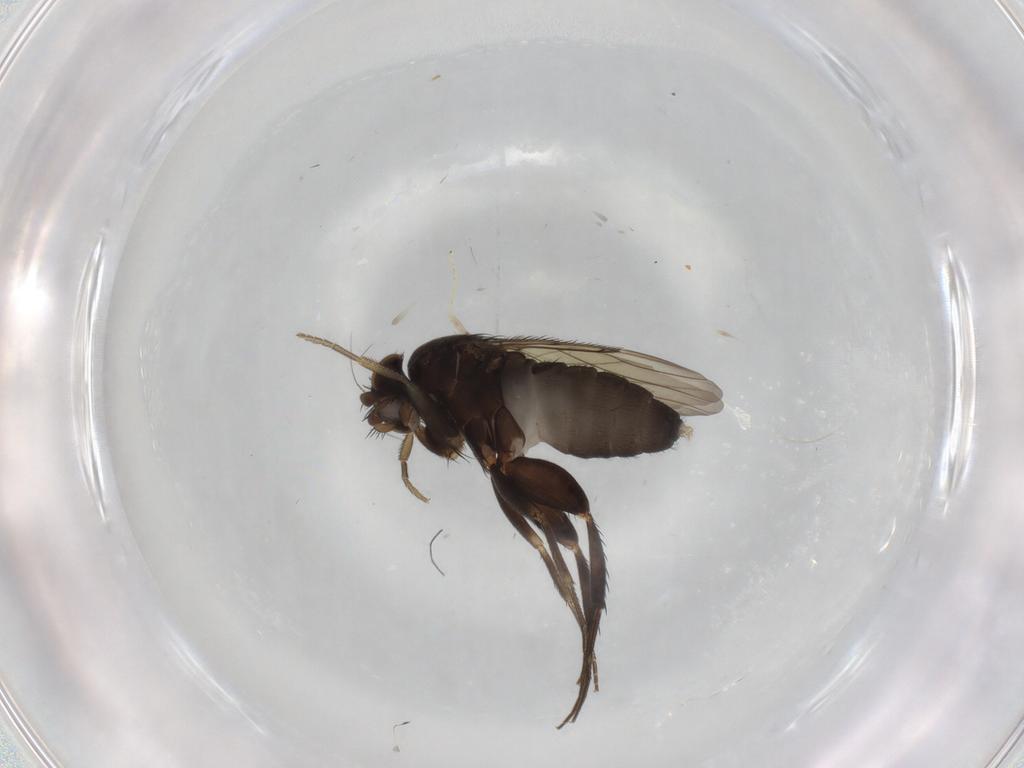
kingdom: Animalia
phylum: Arthropoda
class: Insecta
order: Diptera
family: Phoridae
